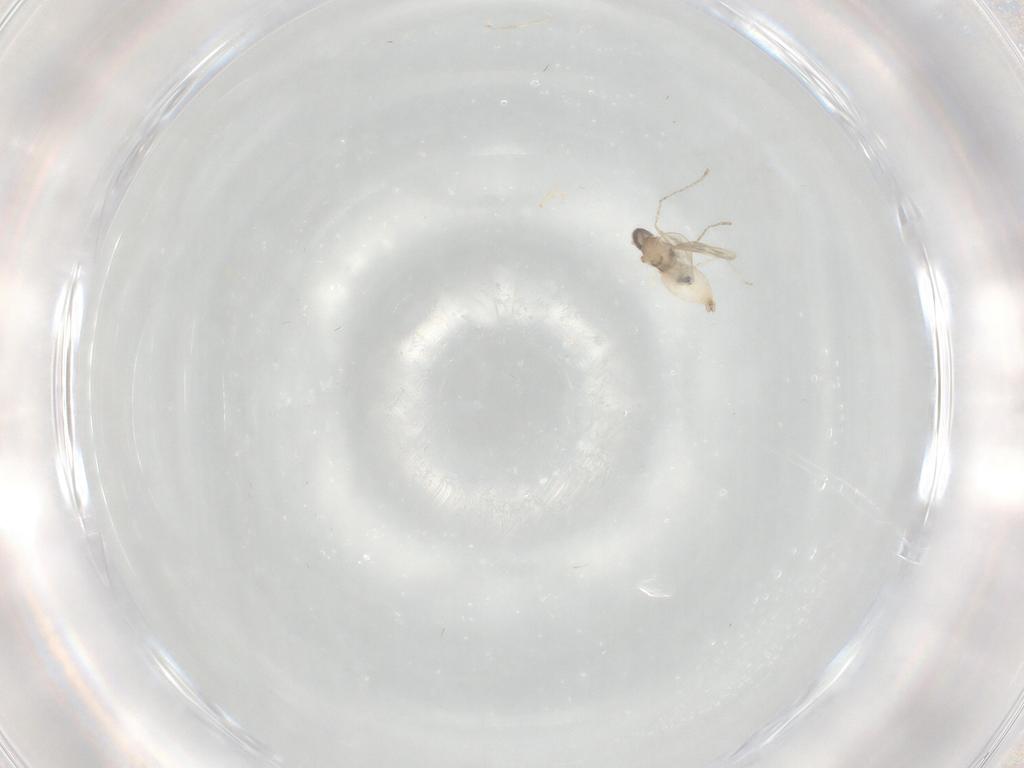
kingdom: Animalia
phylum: Arthropoda
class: Insecta
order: Diptera
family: Cecidomyiidae
